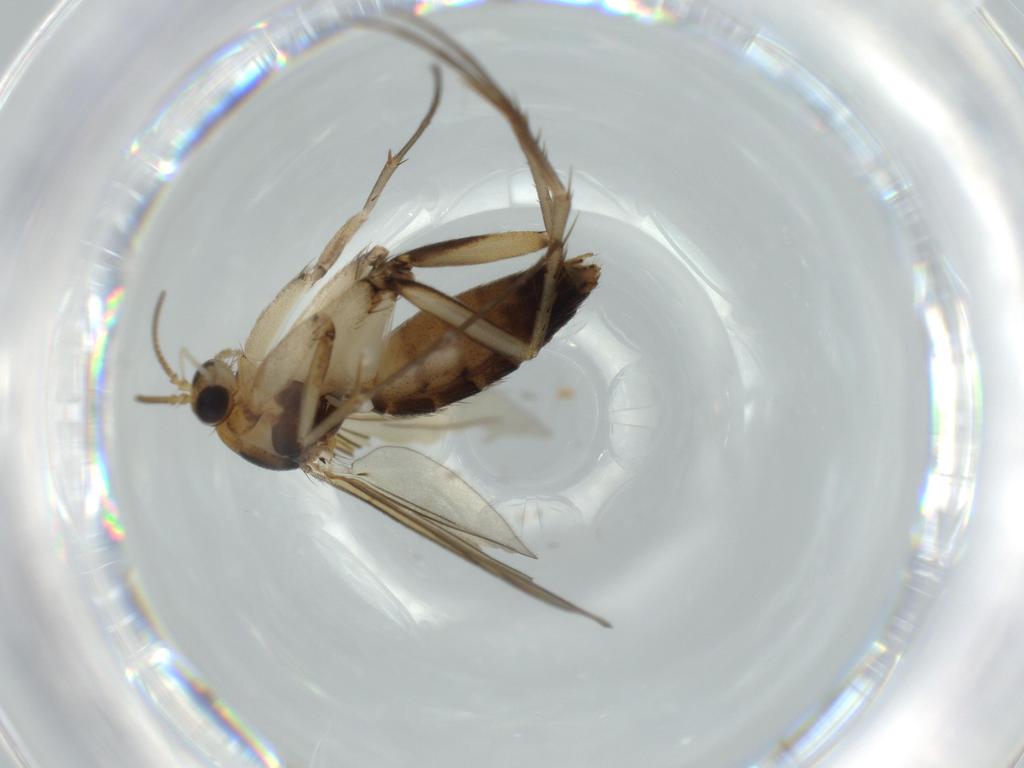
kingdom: Animalia
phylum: Arthropoda
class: Insecta
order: Diptera
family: Mycetophilidae
